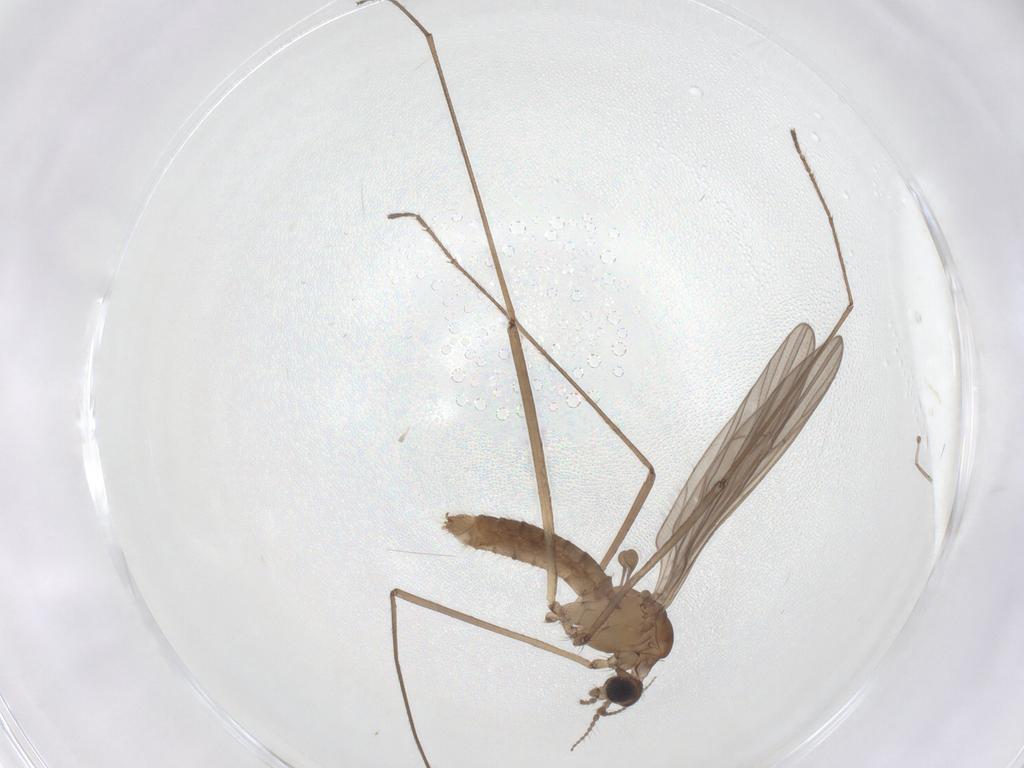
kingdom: Animalia
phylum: Arthropoda
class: Insecta
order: Diptera
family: Limoniidae
